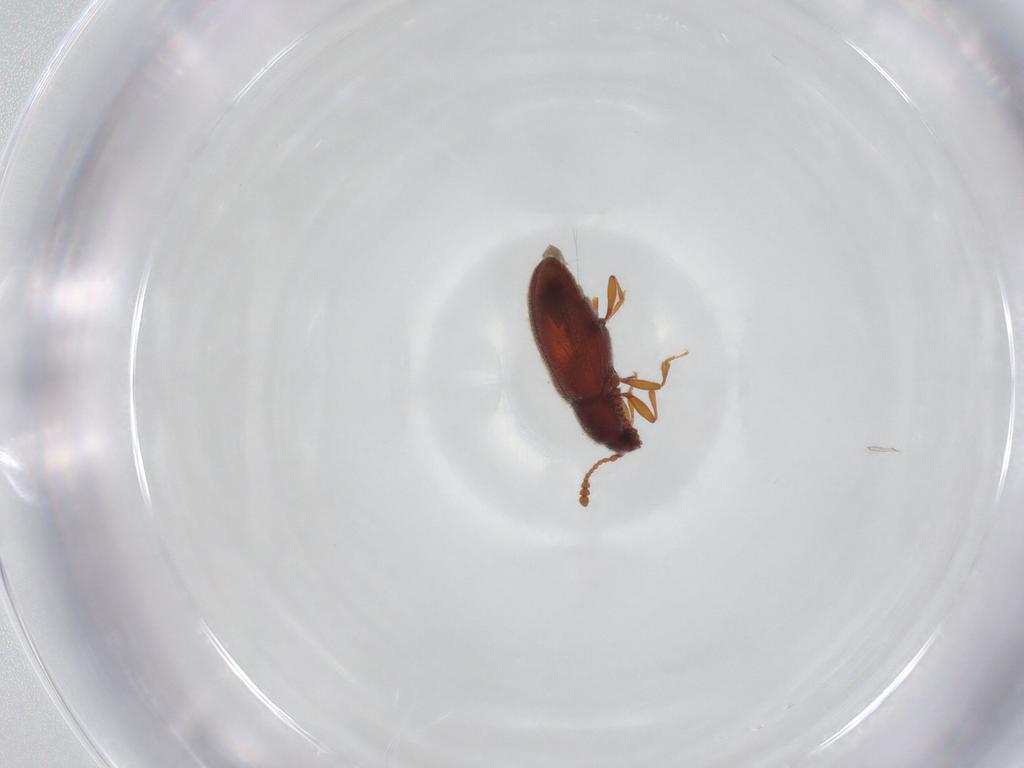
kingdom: Animalia
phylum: Arthropoda
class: Insecta
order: Coleoptera
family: Cryptophagidae
